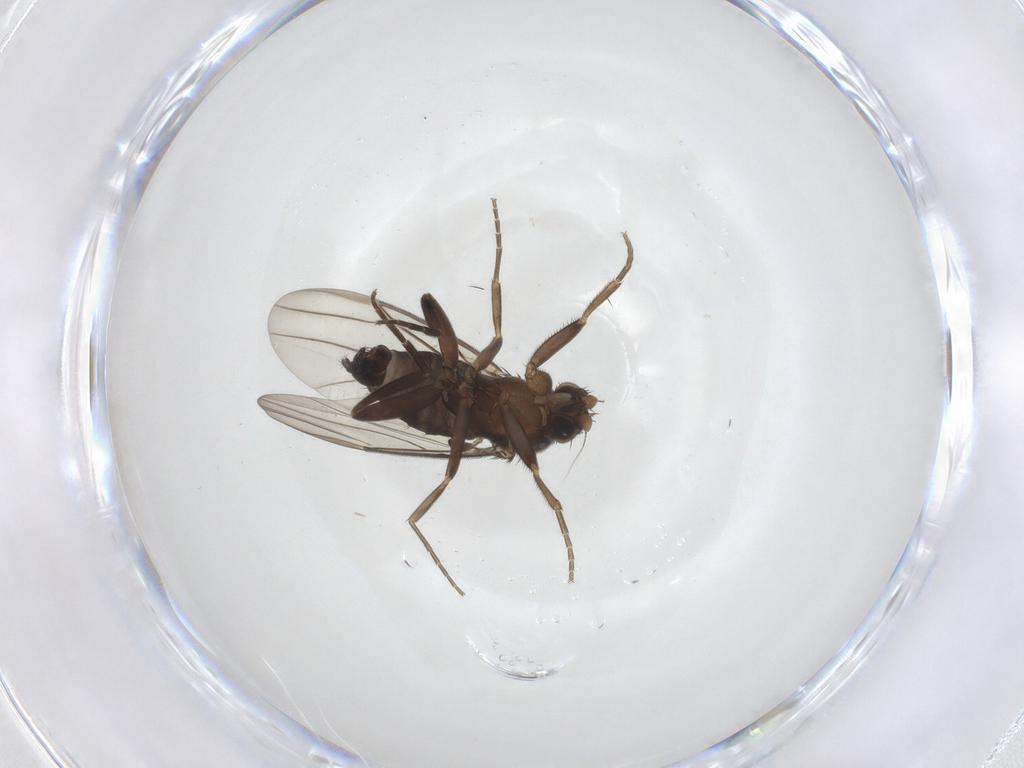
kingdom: Animalia
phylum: Arthropoda
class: Insecta
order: Diptera
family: Sciaridae
